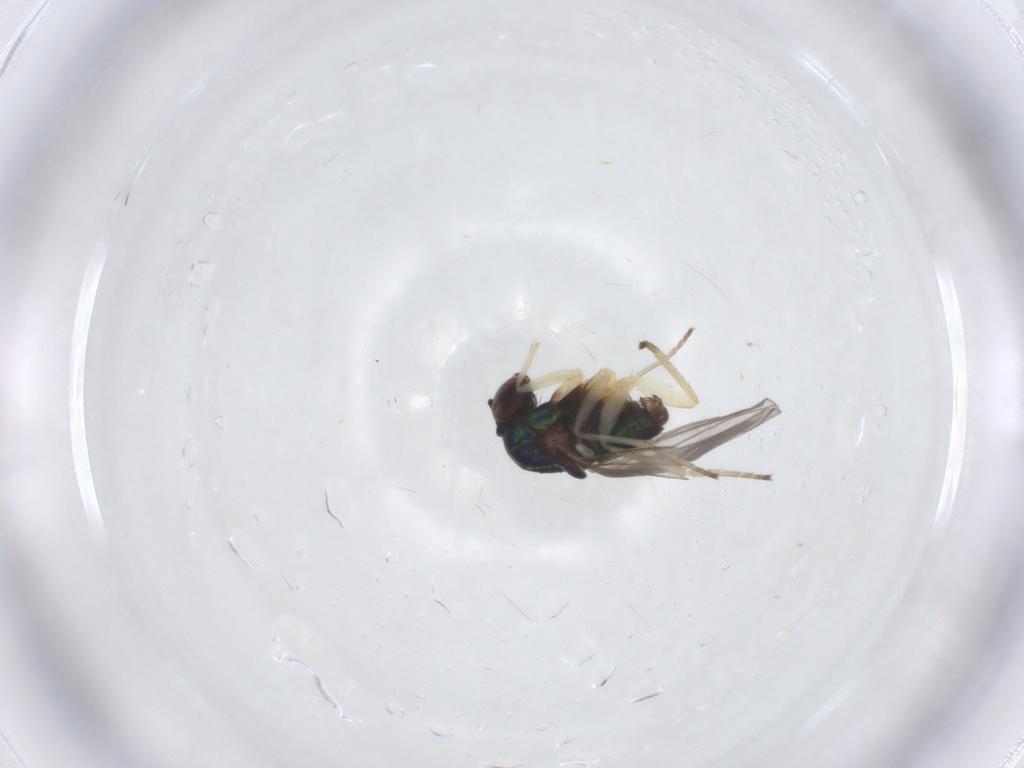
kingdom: Animalia
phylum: Arthropoda
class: Insecta
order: Diptera
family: Dolichopodidae
